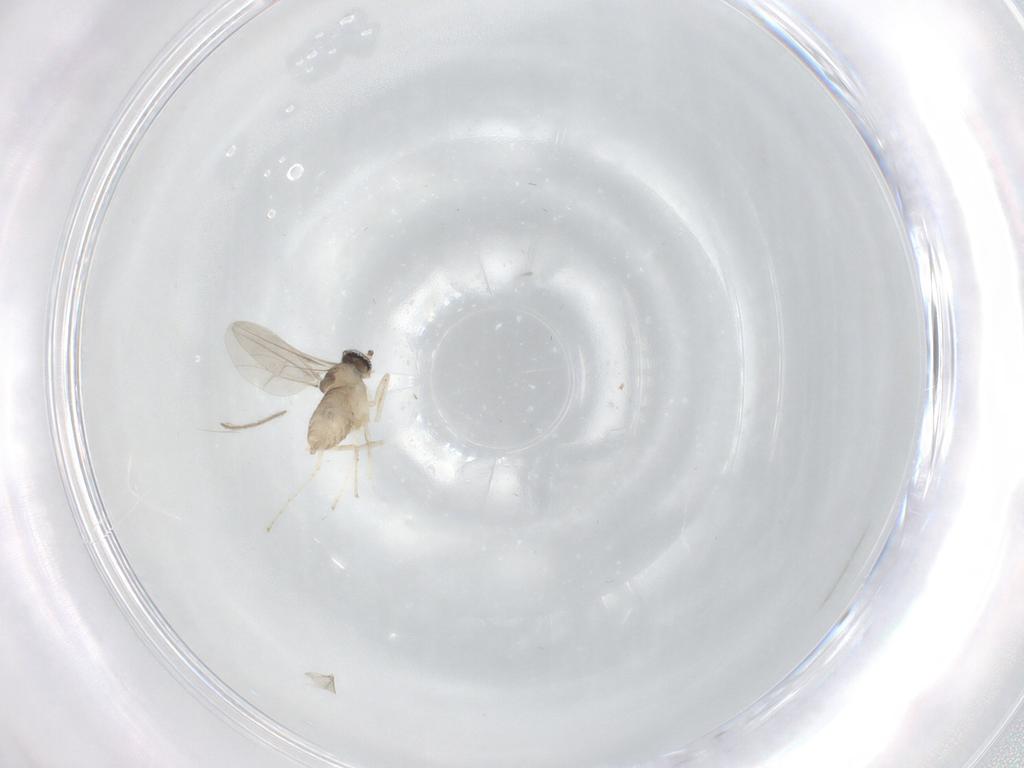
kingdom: Animalia
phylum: Arthropoda
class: Insecta
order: Diptera
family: Cecidomyiidae
